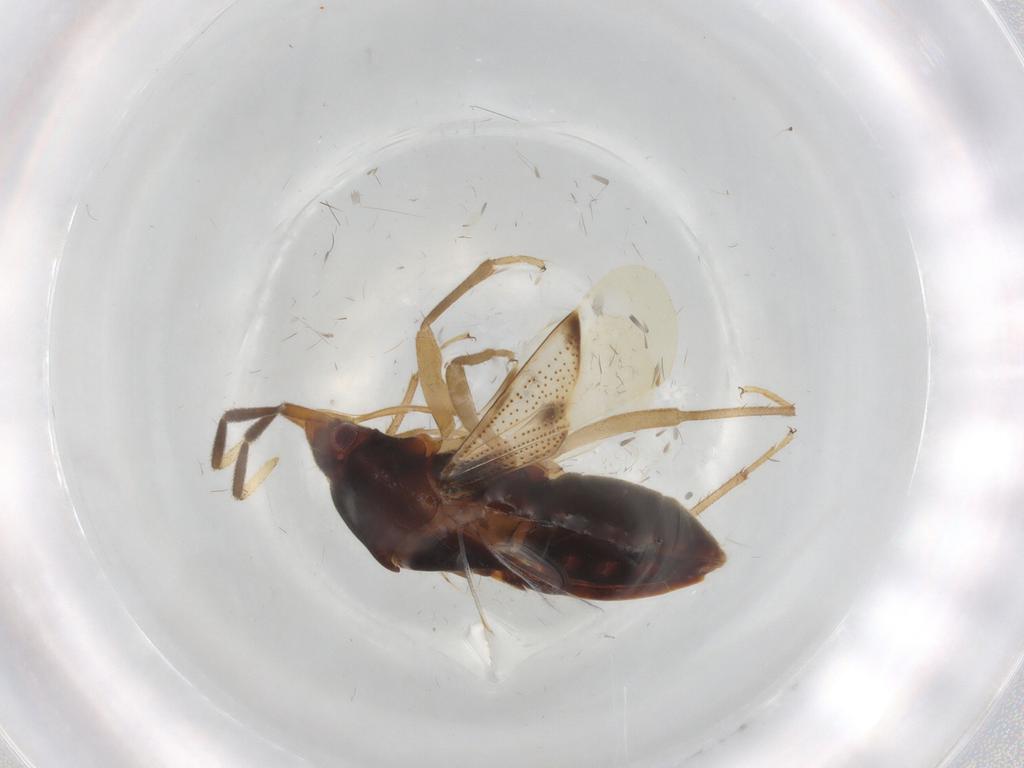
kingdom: Animalia
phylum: Arthropoda
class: Insecta
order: Hemiptera
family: Rhyparochromidae
